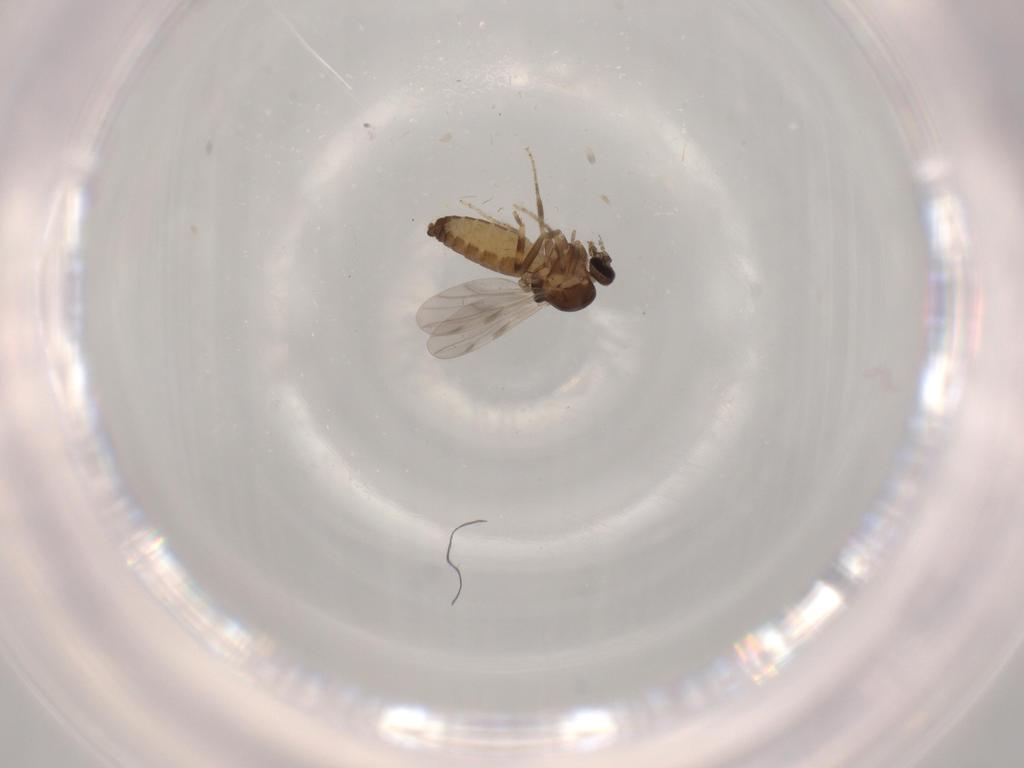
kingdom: Animalia
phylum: Arthropoda
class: Insecta
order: Diptera
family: Ceratopogonidae
